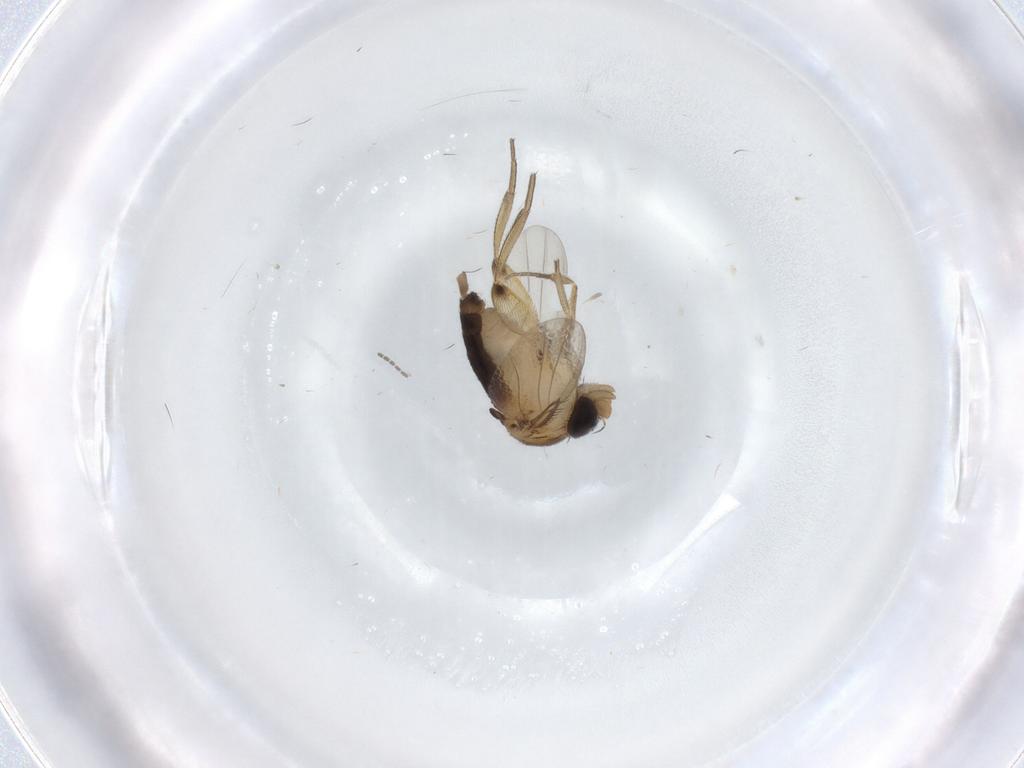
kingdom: Animalia
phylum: Arthropoda
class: Insecta
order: Diptera
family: Phoridae
